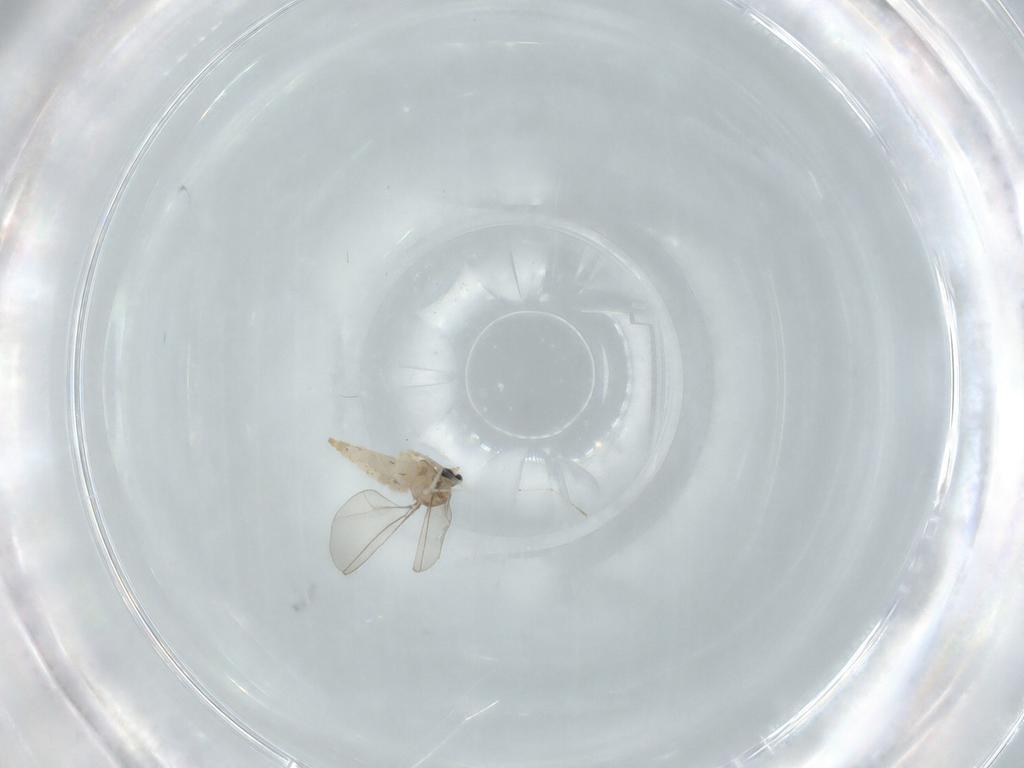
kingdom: Animalia
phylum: Arthropoda
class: Insecta
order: Diptera
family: Cecidomyiidae
